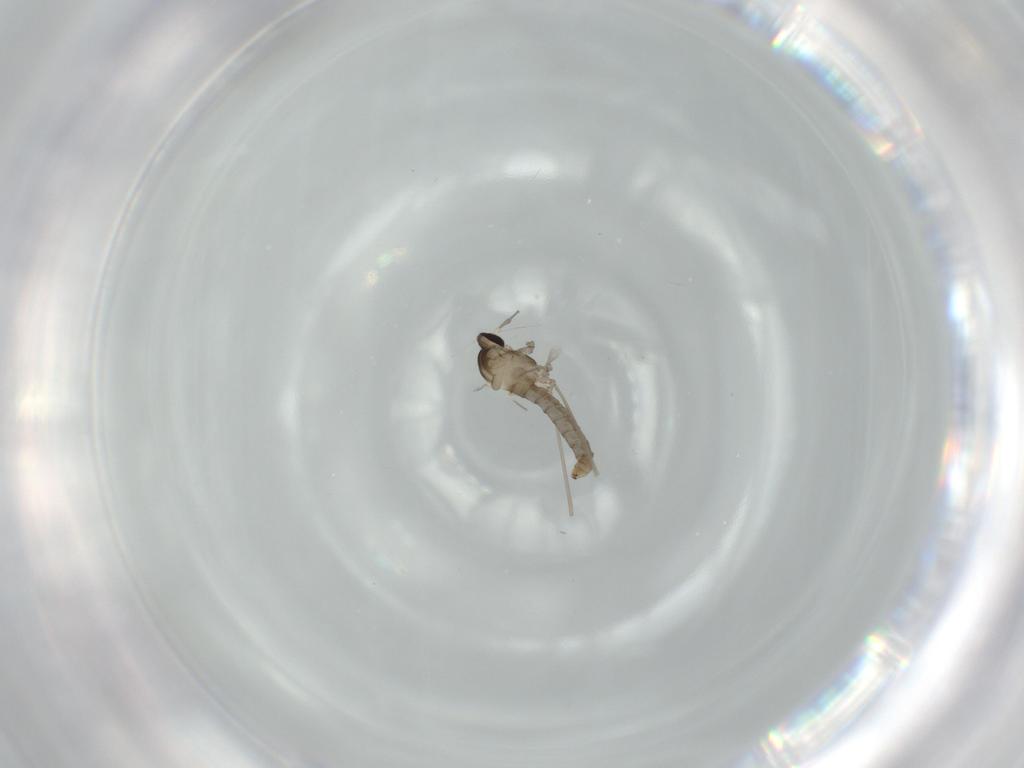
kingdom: Animalia
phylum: Arthropoda
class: Insecta
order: Diptera
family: Cecidomyiidae
